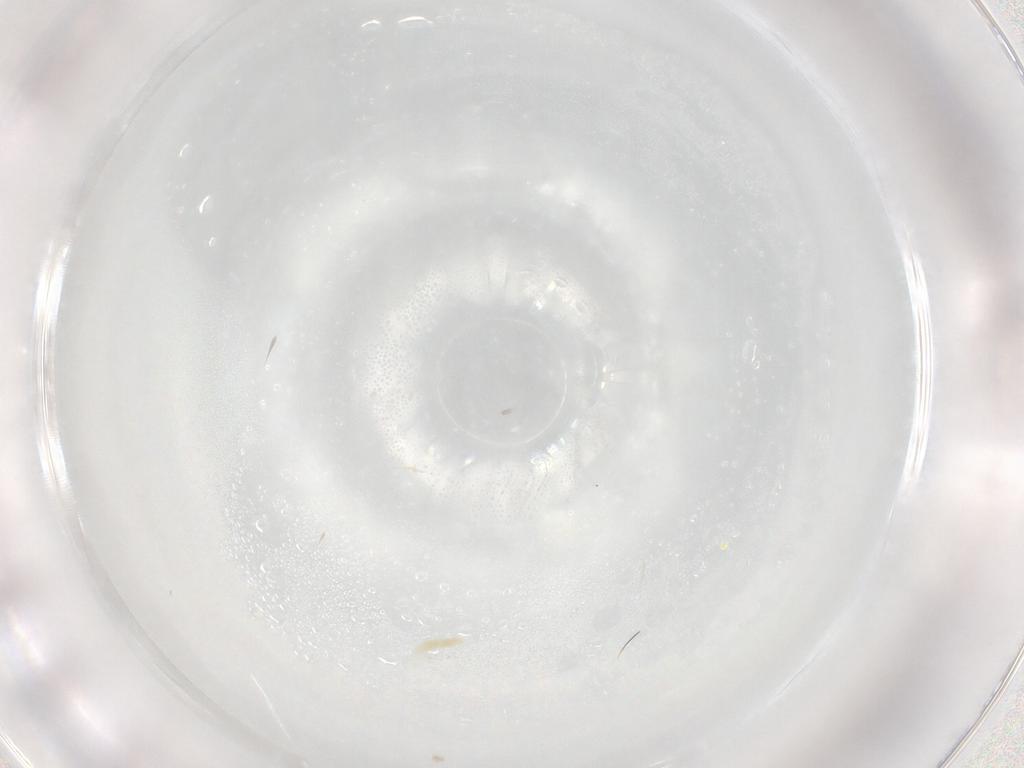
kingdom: Animalia
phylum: Arthropoda
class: Arachnida
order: Trombidiformes
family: Eupodidae
